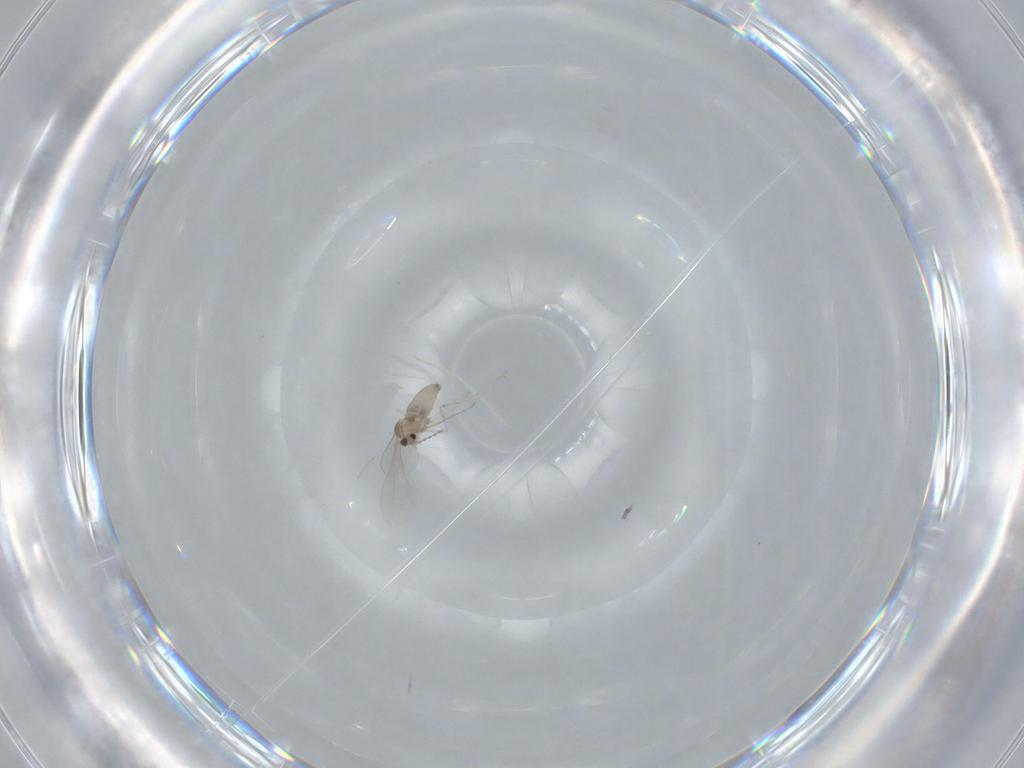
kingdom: Animalia
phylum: Arthropoda
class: Insecta
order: Diptera
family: Cecidomyiidae
